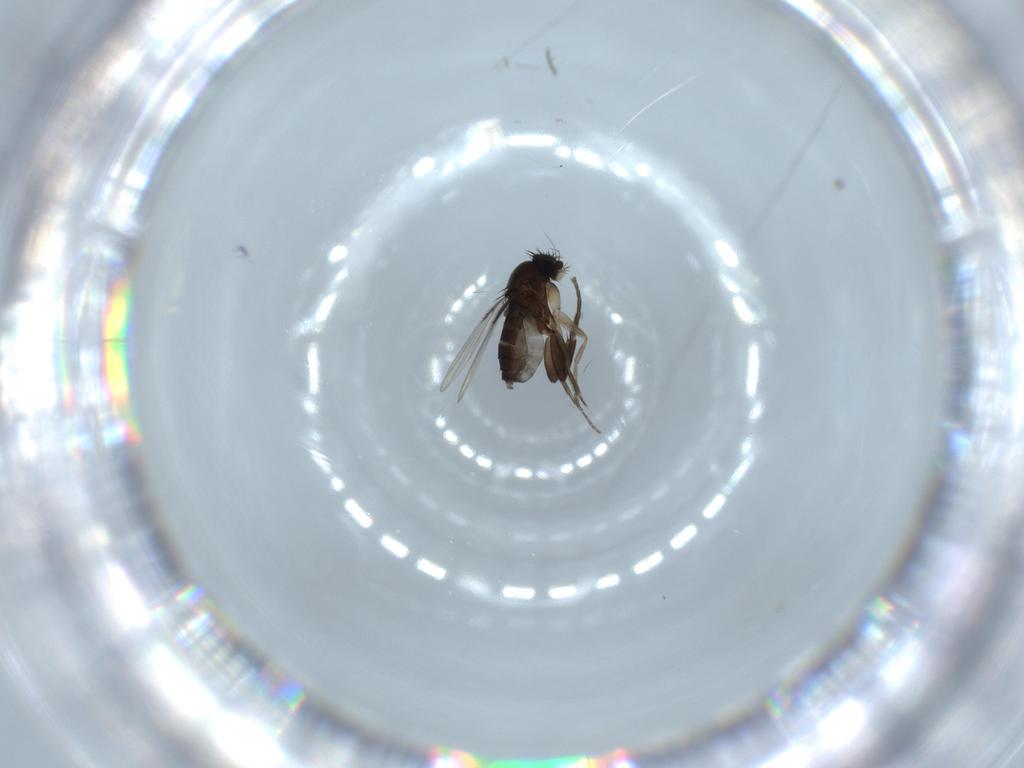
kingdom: Animalia
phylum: Arthropoda
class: Insecta
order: Diptera
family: Phoridae
